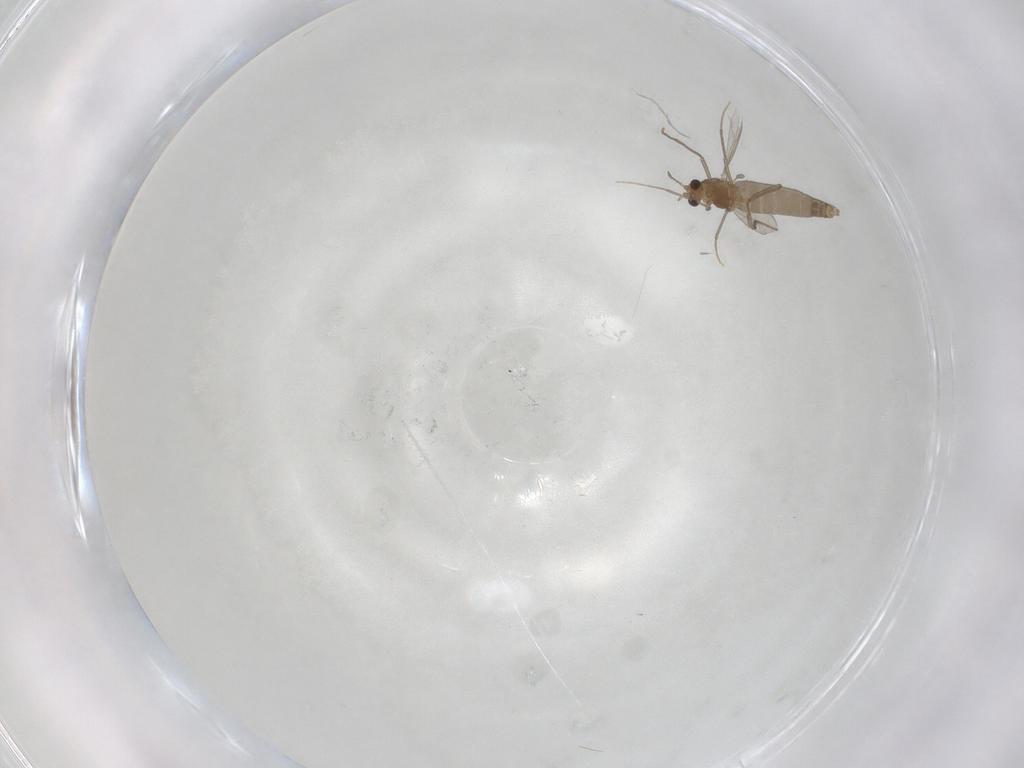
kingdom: Animalia
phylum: Arthropoda
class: Insecta
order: Diptera
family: Chironomidae
